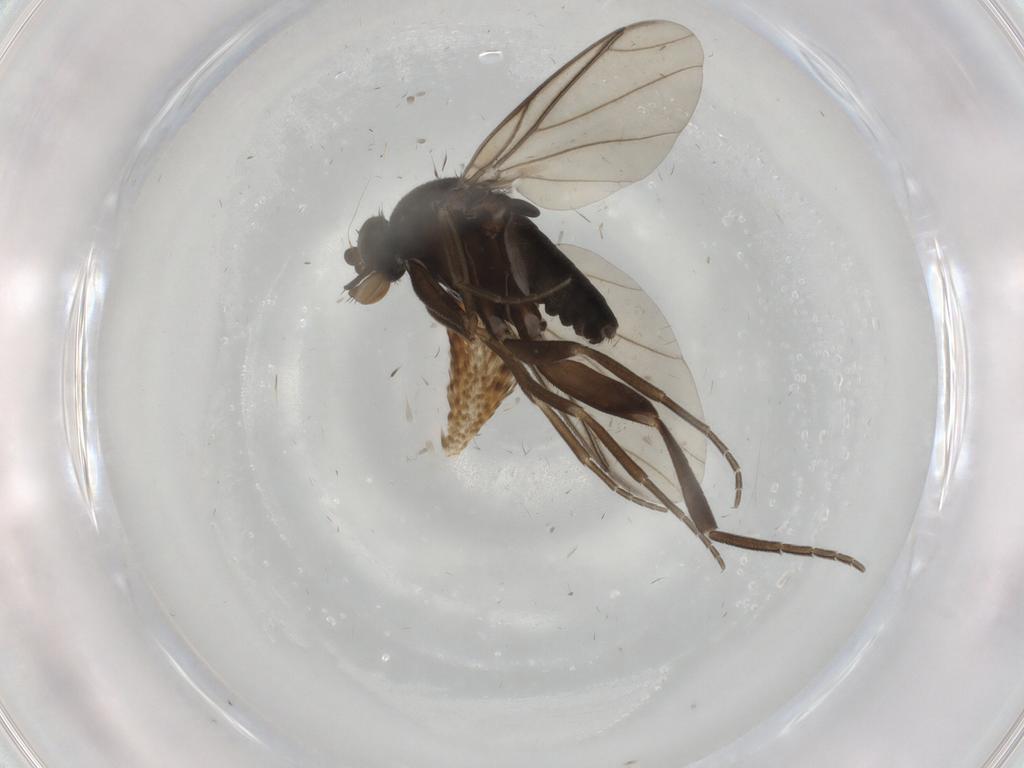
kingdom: Animalia
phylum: Arthropoda
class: Insecta
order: Diptera
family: Phoridae
